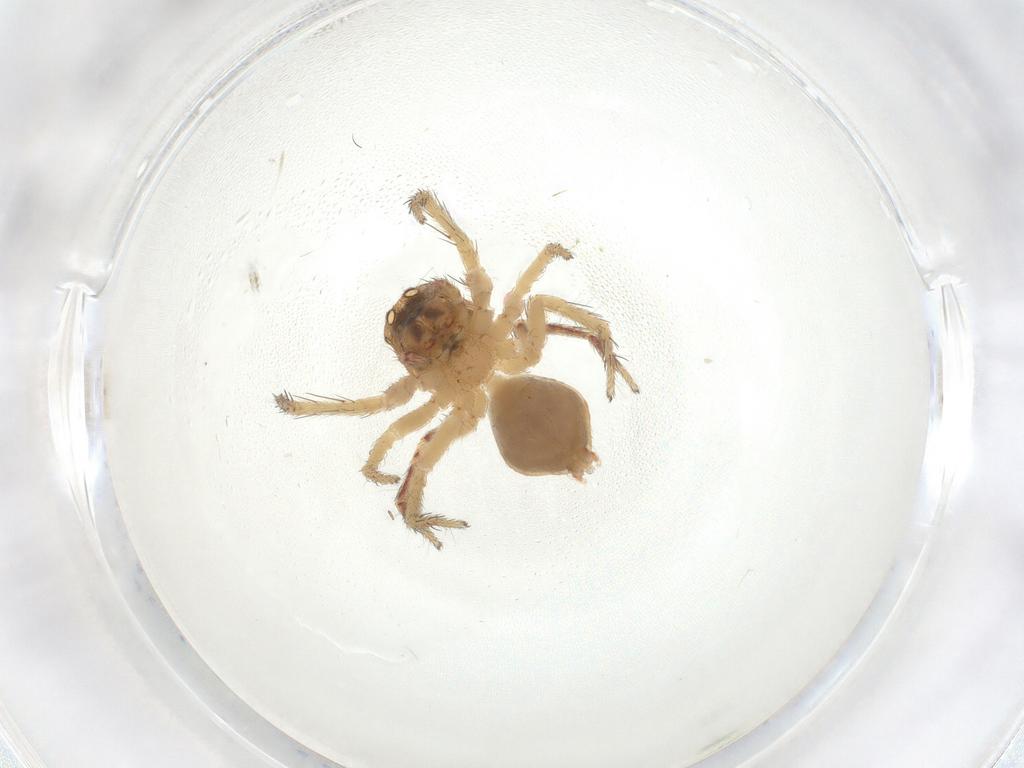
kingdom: Animalia
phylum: Arthropoda
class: Arachnida
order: Araneae
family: Oxyopidae
